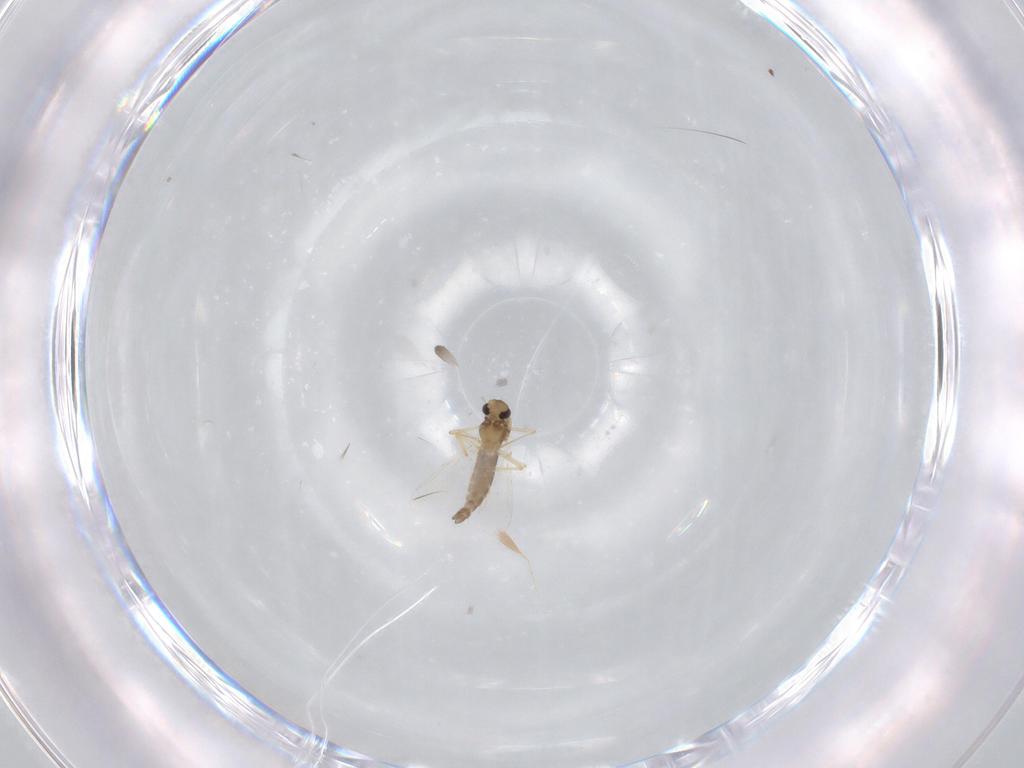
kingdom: Animalia
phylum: Arthropoda
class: Insecta
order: Diptera
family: Chironomidae
